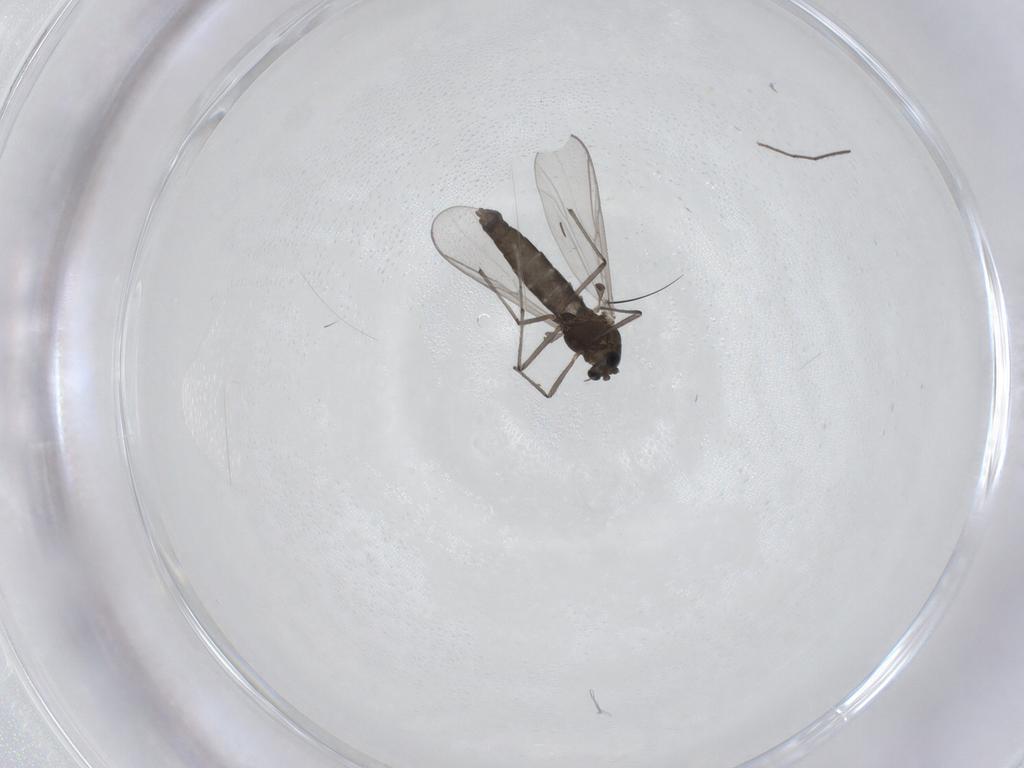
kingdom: Animalia
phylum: Arthropoda
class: Insecta
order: Diptera
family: Chironomidae
